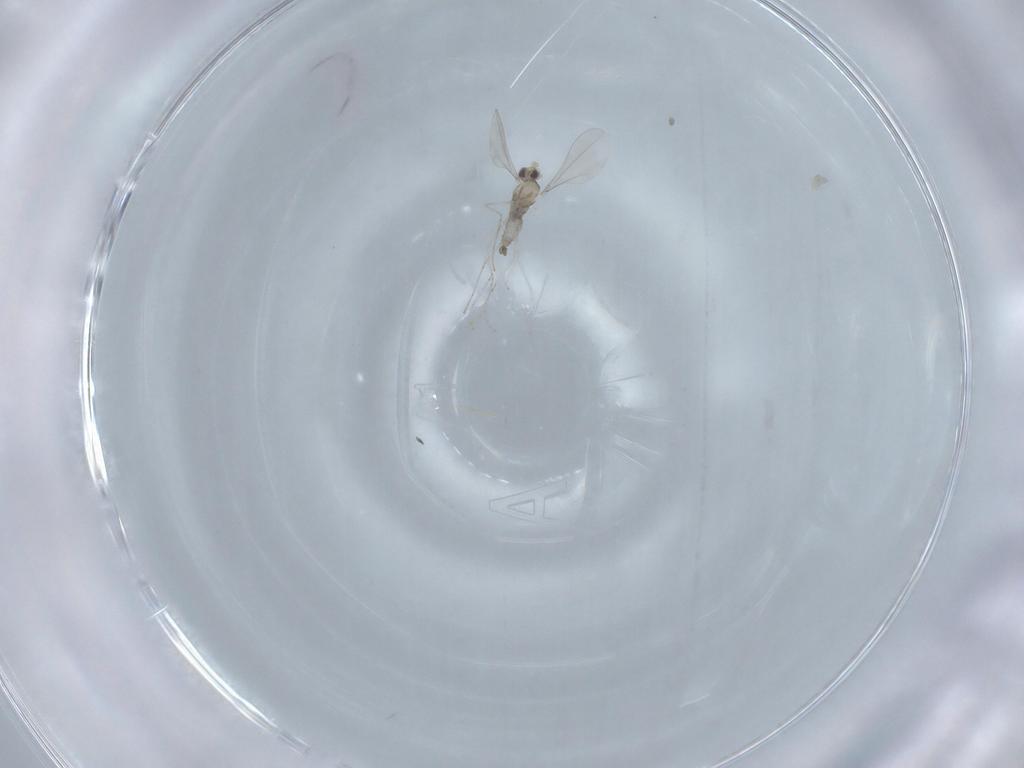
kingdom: Animalia
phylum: Arthropoda
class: Insecta
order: Diptera
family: Cecidomyiidae
